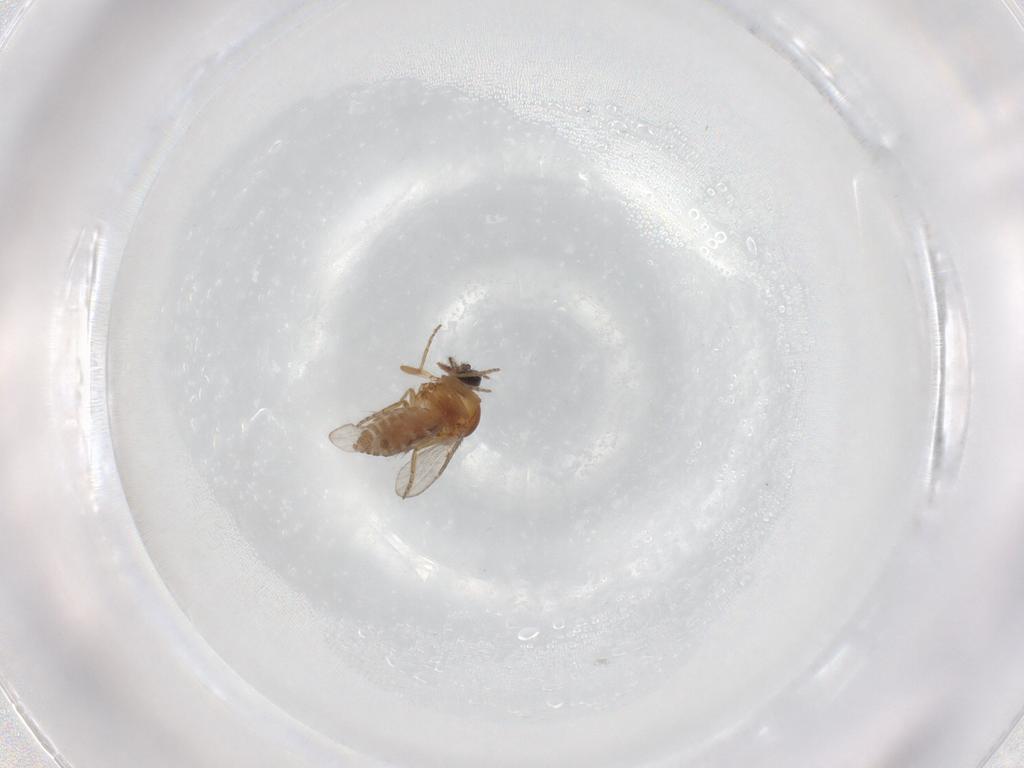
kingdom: Animalia
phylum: Arthropoda
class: Insecta
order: Diptera
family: Ceratopogonidae
